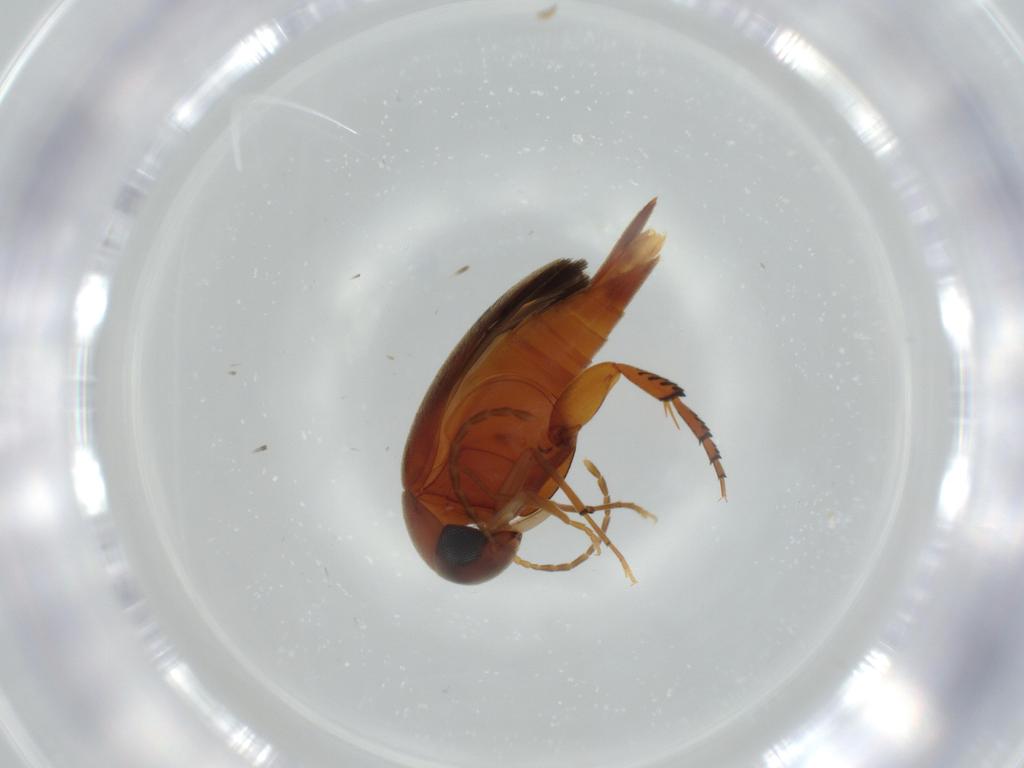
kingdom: Animalia
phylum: Arthropoda
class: Insecta
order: Coleoptera
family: Chrysomelidae
